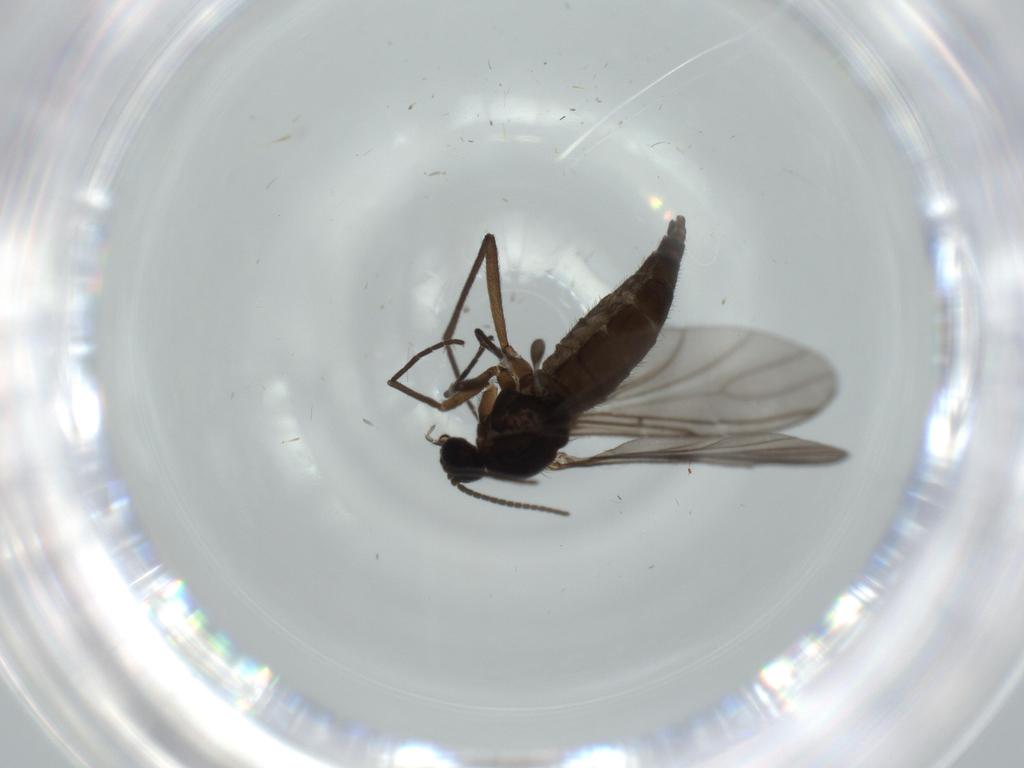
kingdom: Animalia
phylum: Arthropoda
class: Insecta
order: Diptera
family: Sciaridae
